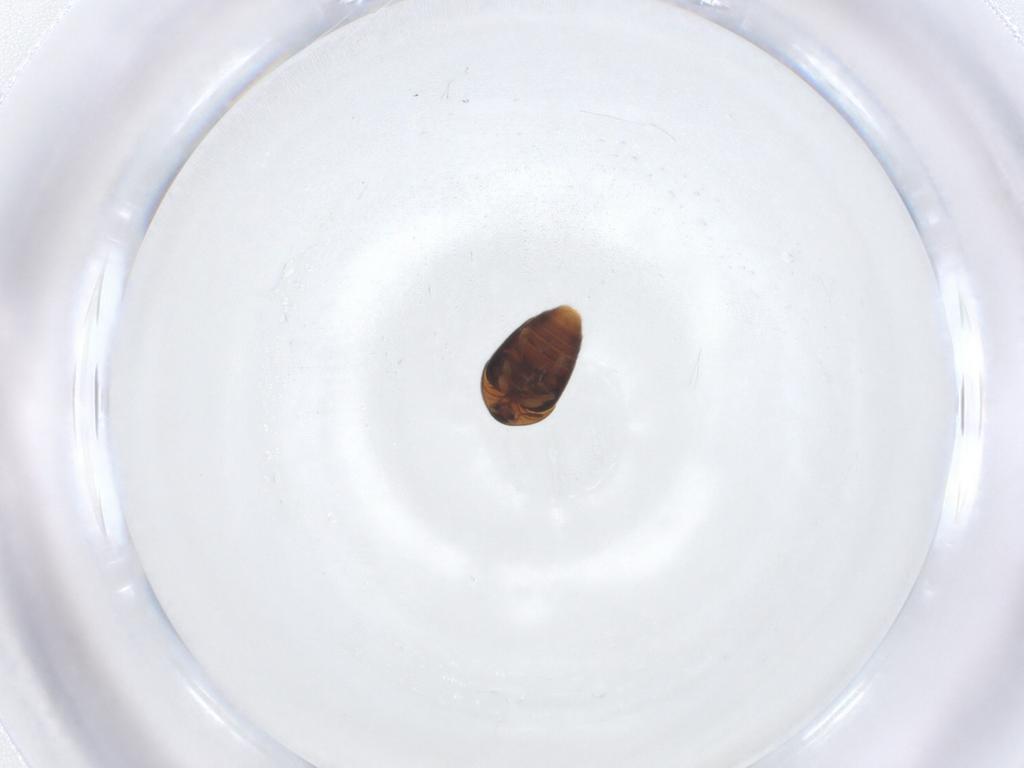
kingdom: Animalia
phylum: Arthropoda
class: Insecta
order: Coleoptera
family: Corylophidae
